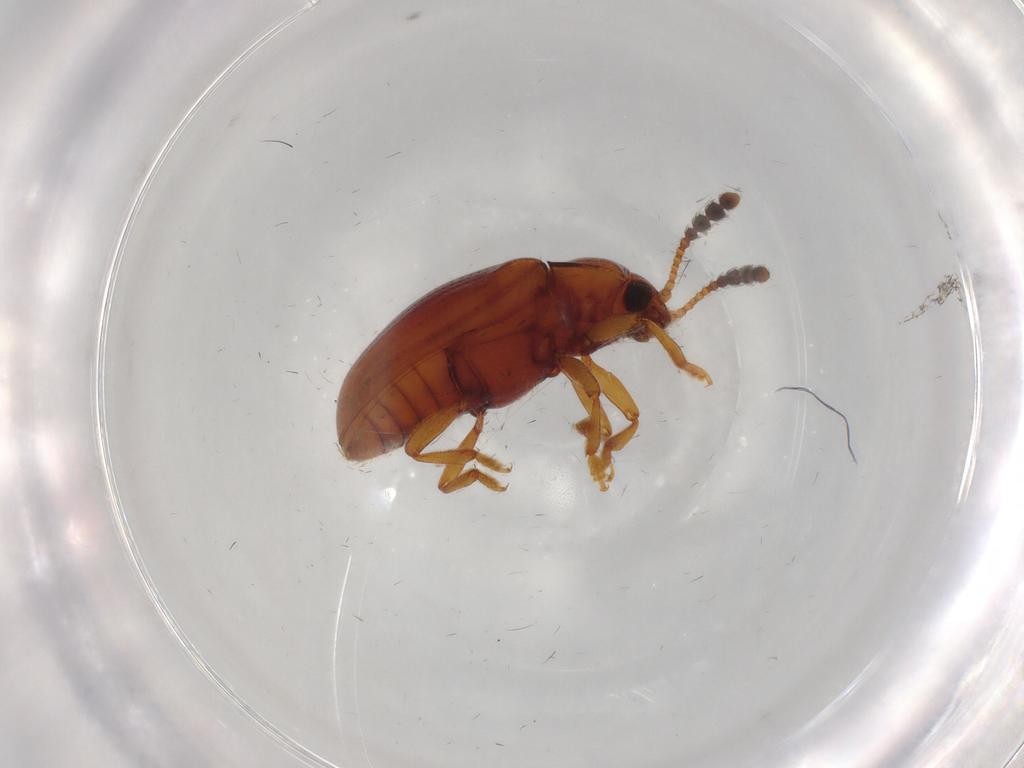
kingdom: Animalia
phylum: Arthropoda
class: Insecta
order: Coleoptera
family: Erotylidae
